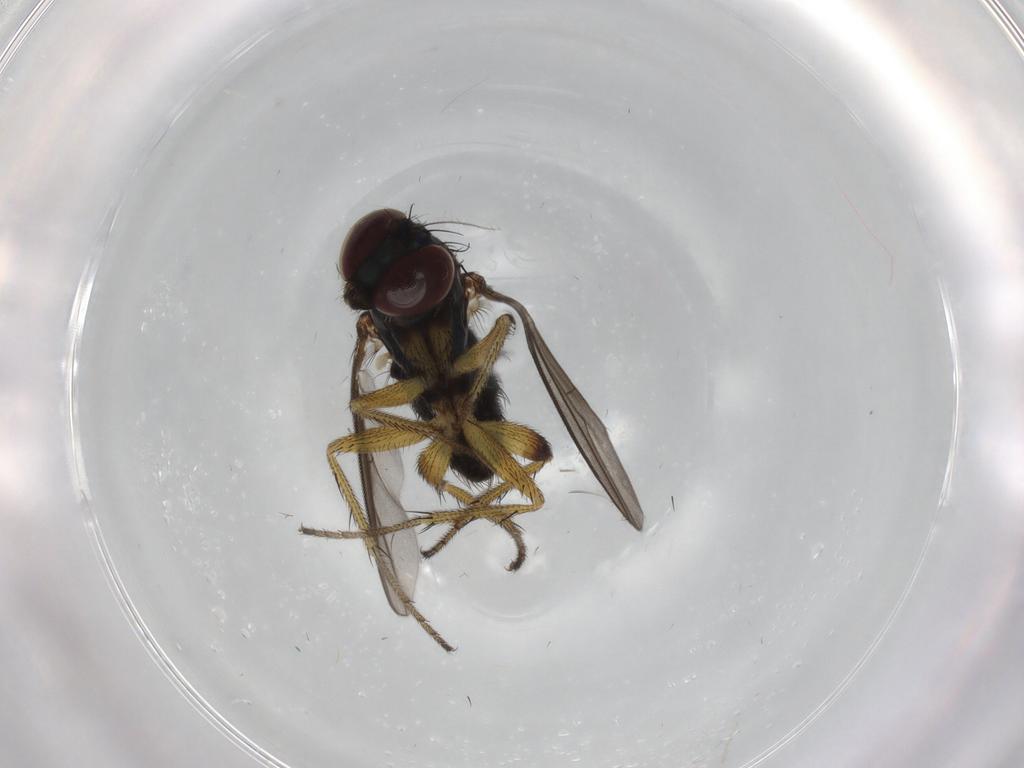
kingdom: Animalia
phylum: Arthropoda
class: Insecta
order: Diptera
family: Dolichopodidae
